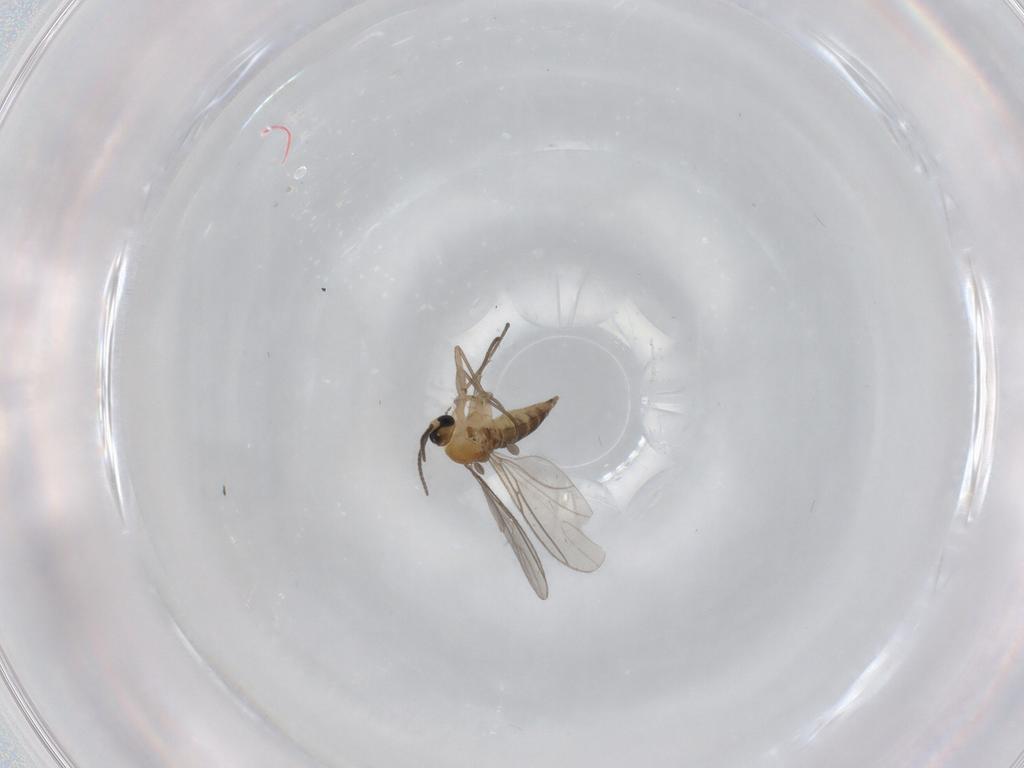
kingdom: Animalia
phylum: Arthropoda
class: Insecta
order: Diptera
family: Sciaridae
